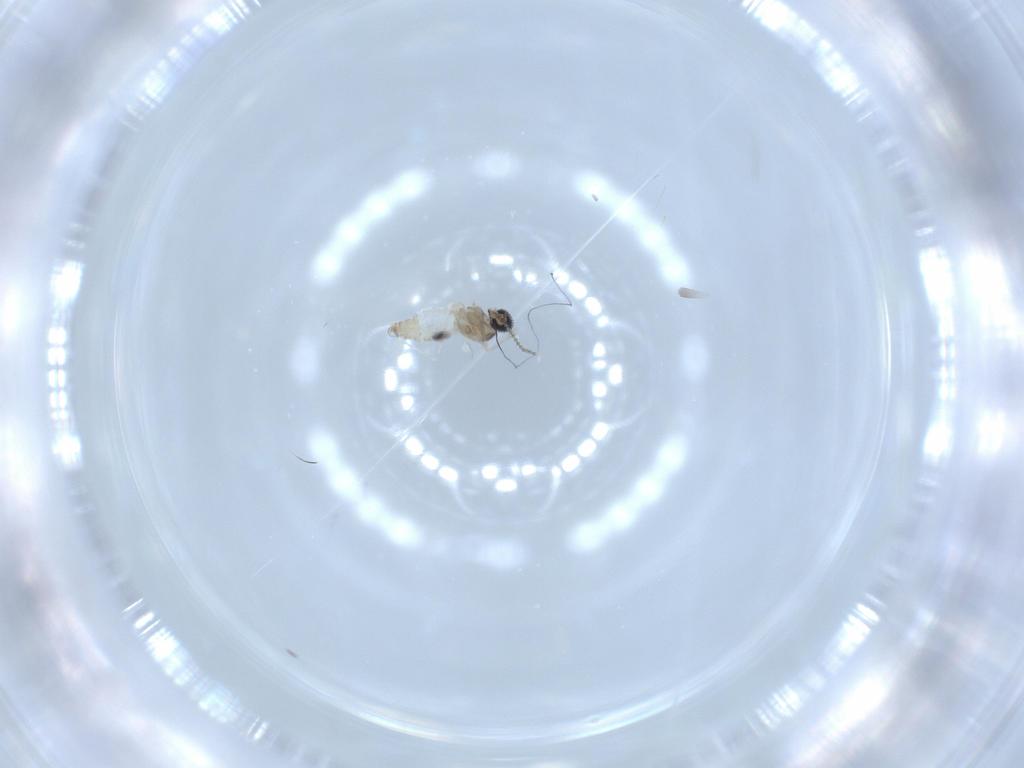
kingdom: Animalia
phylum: Arthropoda
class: Insecta
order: Diptera
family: Cecidomyiidae
